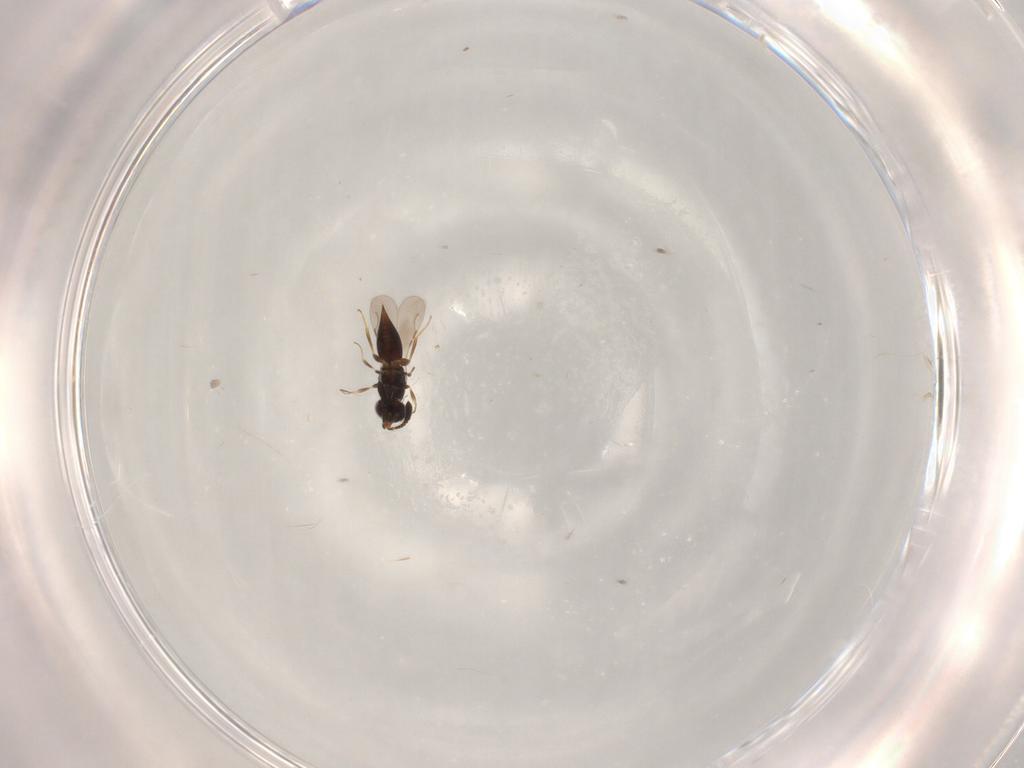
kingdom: Animalia
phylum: Arthropoda
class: Insecta
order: Hymenoptera
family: Ceraphronidae
